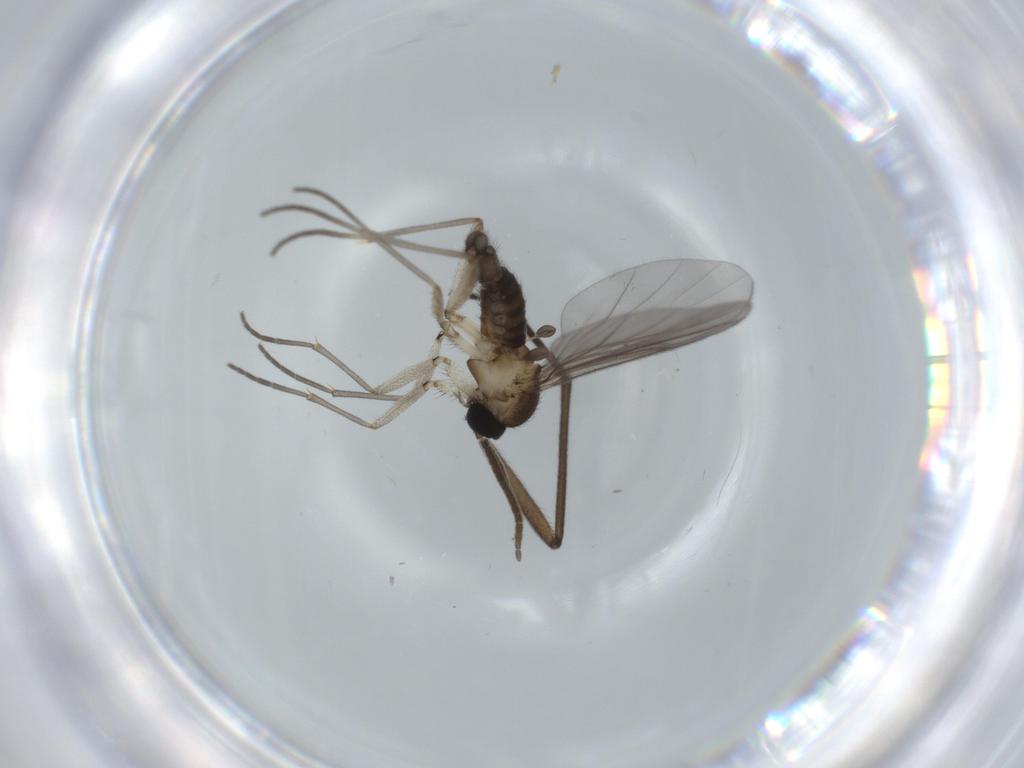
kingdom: Animalia
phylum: Arthropoda
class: Insecta
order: Diptera
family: Sciaridae
